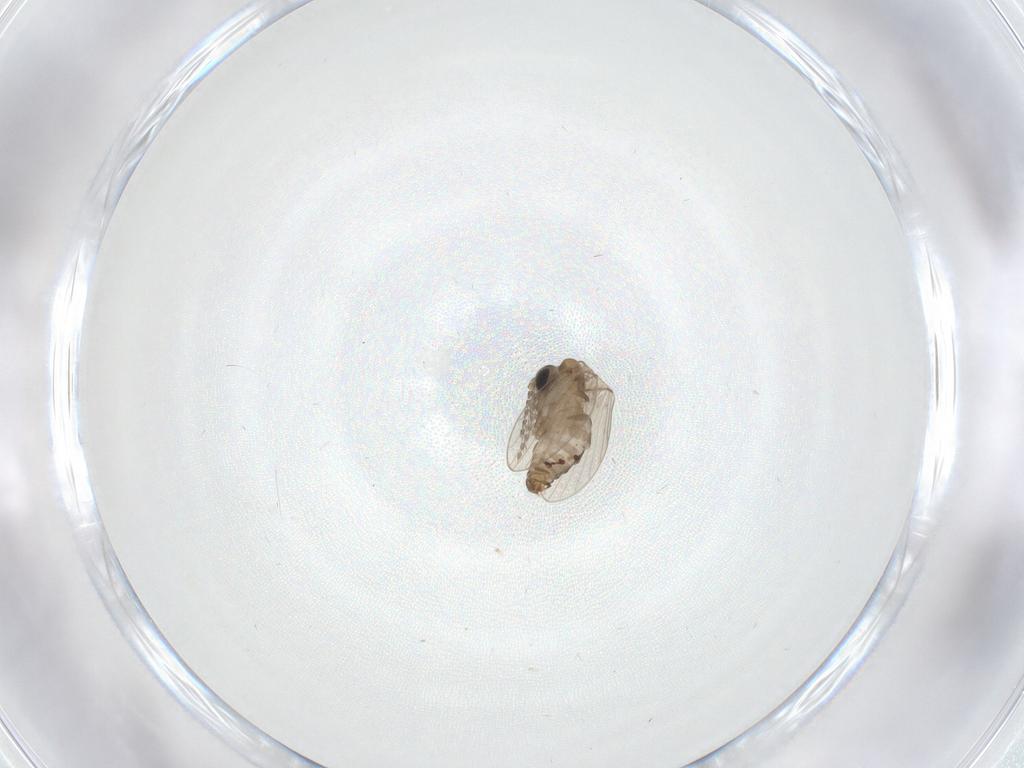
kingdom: Animalia
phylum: Arthropoda
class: Insecta
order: Diptera
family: Psychodidae
